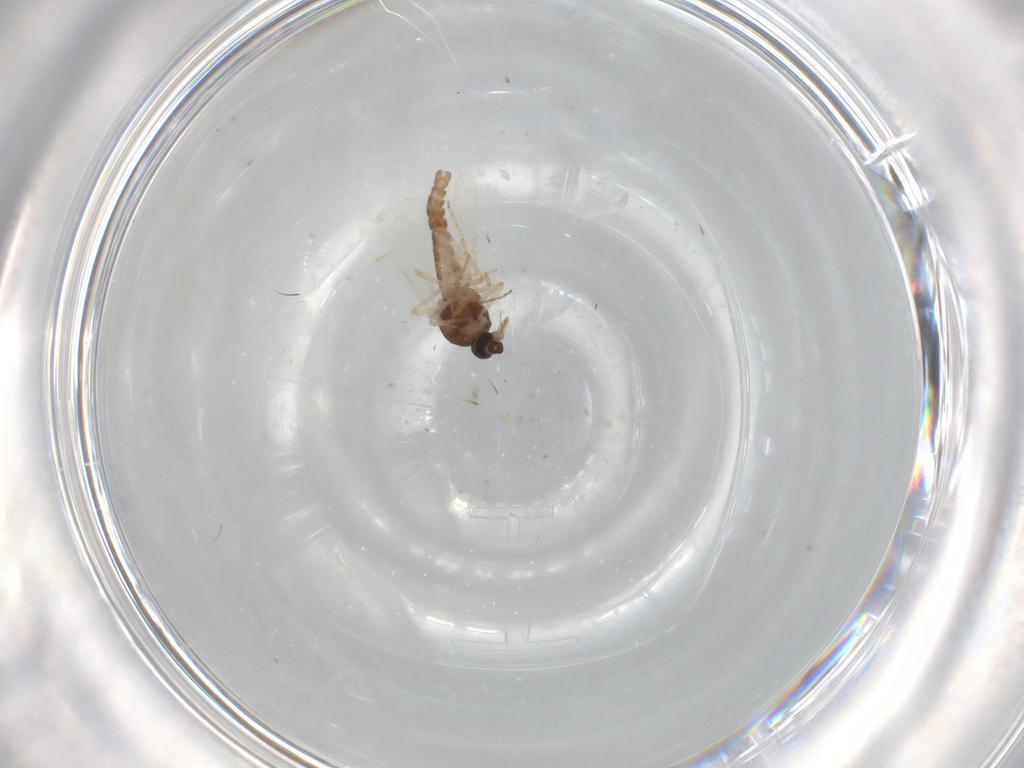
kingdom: Animalia
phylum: Arthropoda
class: Insecta
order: Diptera
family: Ceratopogonidae
